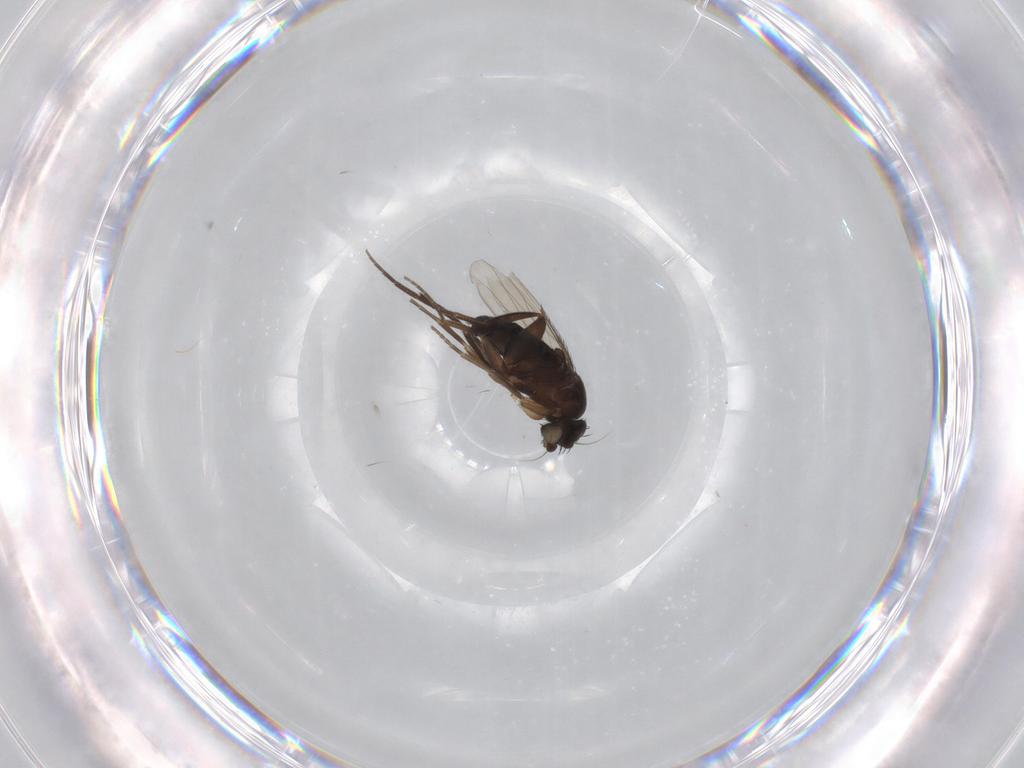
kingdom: Animalia
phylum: Arthropoda
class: Insecta
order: Diptera
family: Phoridae
